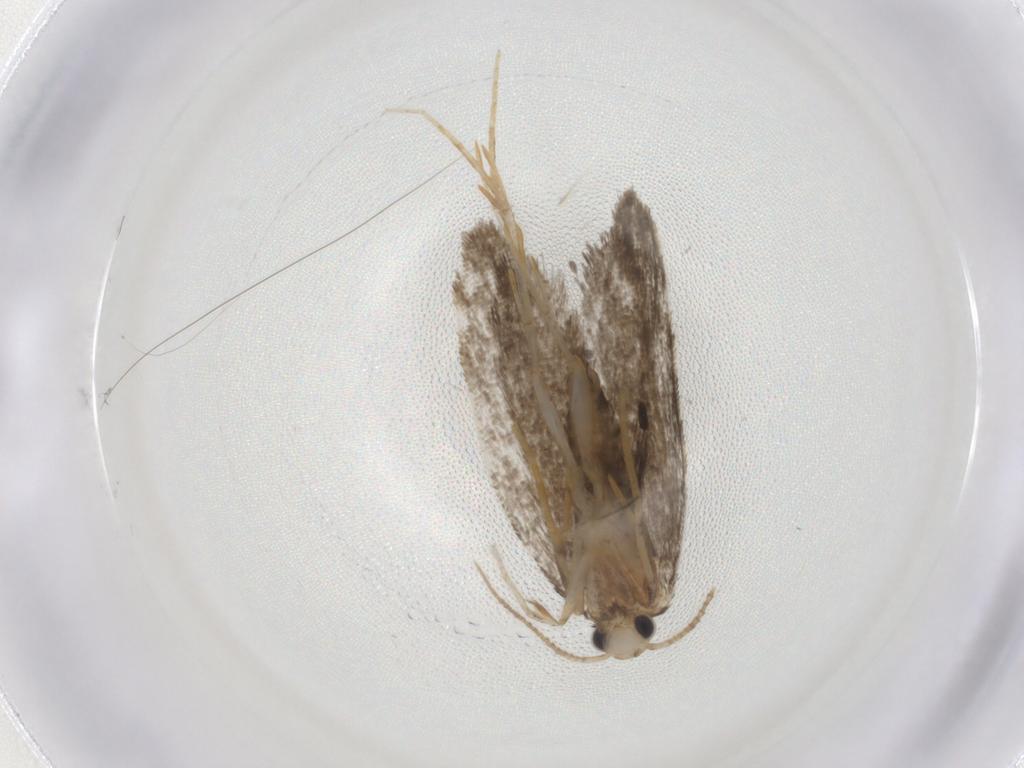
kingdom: Animalia
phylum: Arthropoda
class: Insecta
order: Lepidoptera
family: Psychidae
